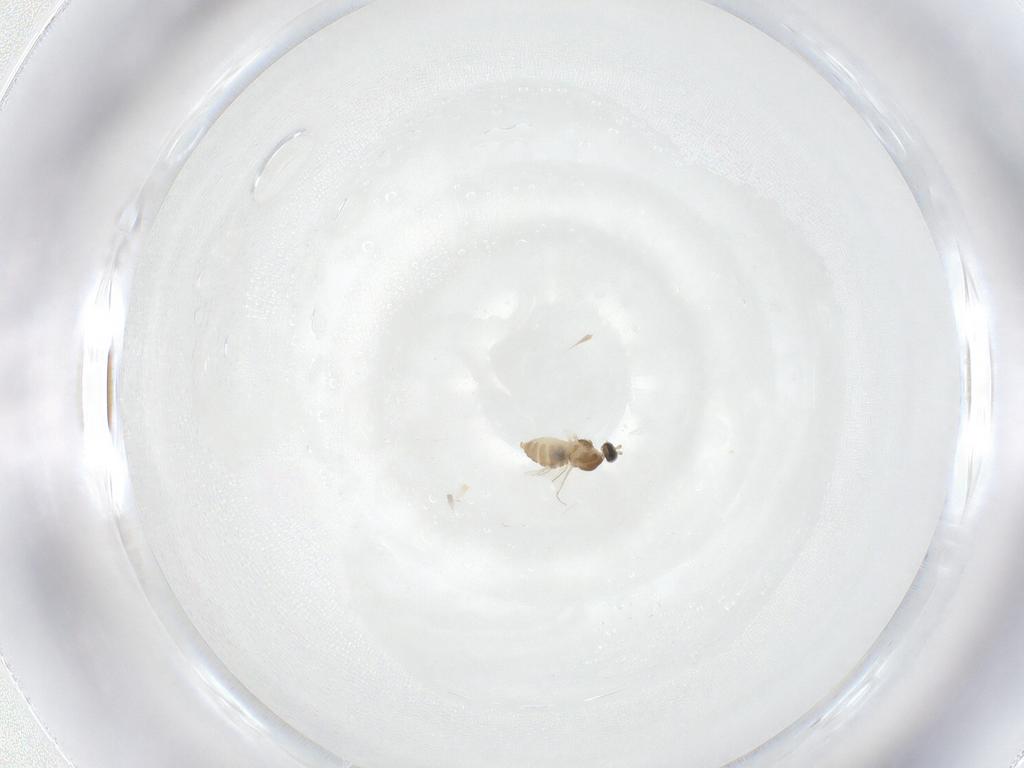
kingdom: Animalia
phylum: Arthropoda
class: Insecta
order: Diptera
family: Cecidomyiidae
